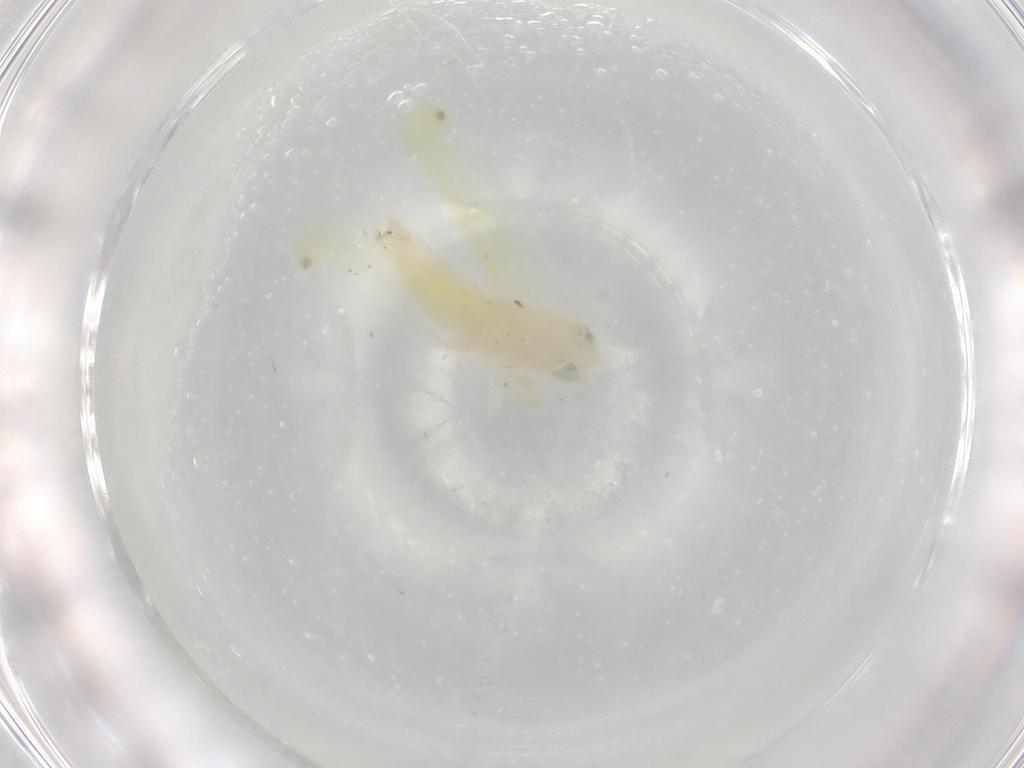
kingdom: Animalia
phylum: Arthropoda
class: Insecta
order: Hemiptera
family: Cicadellidae
